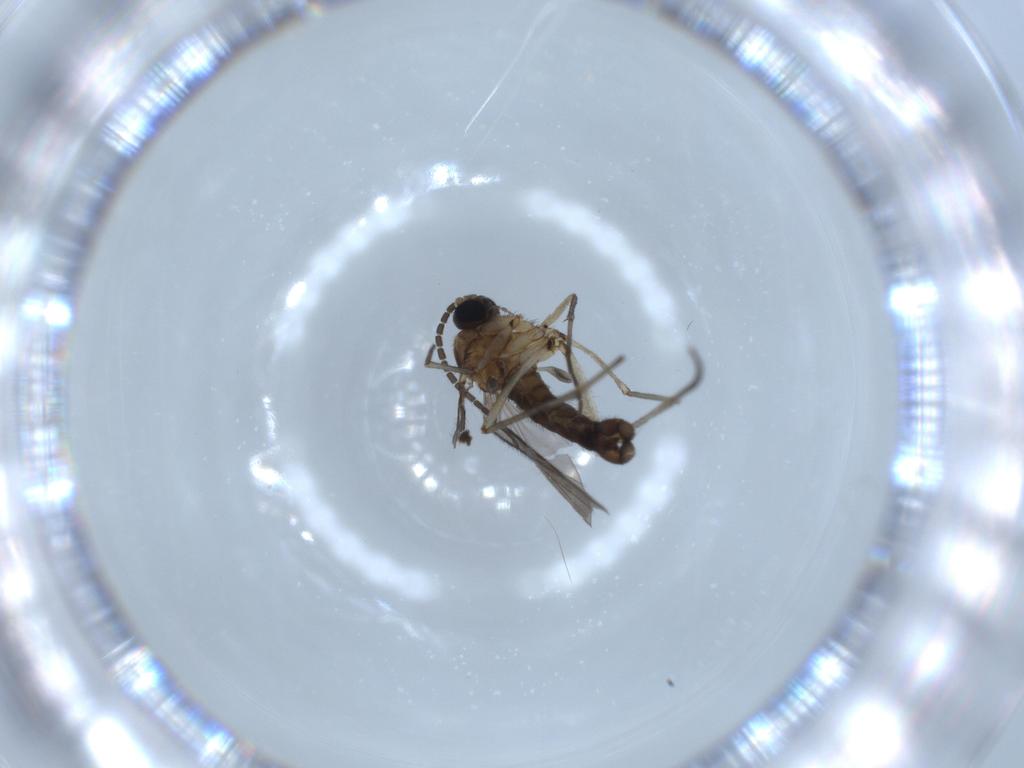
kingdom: Animalia
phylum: Arthropoda
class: Insecta
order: Diptera
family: Sciaridae
